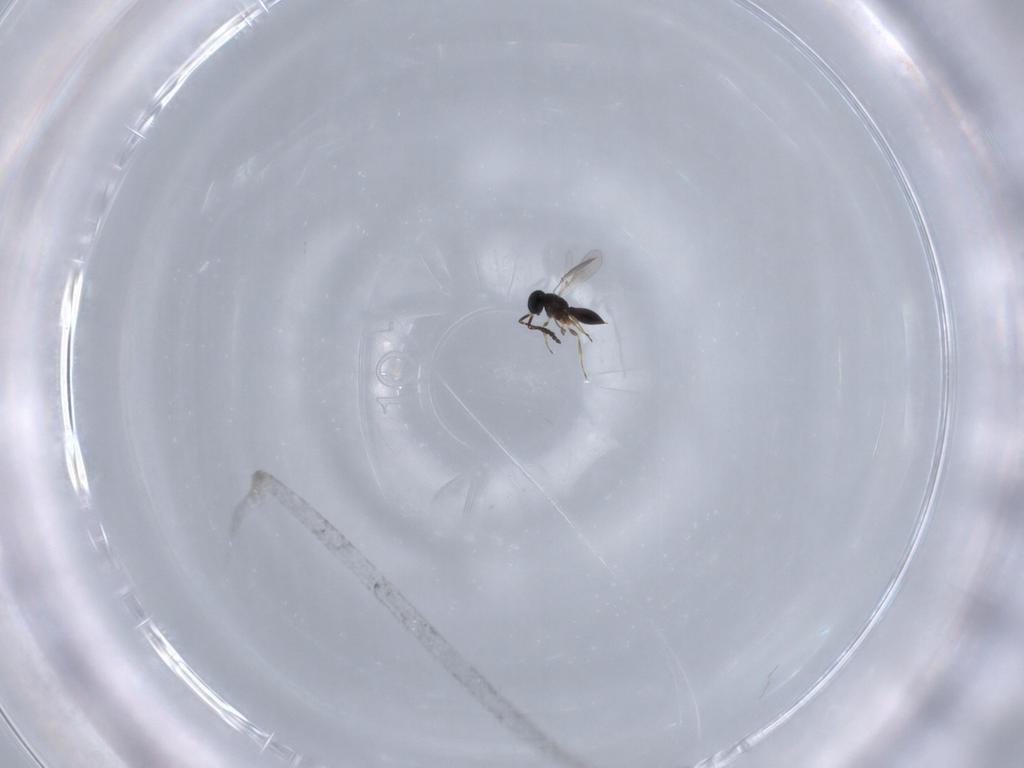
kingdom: Animalia
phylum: Arthropoda
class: Insecta
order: Hymenoptera
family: Scelionidae
